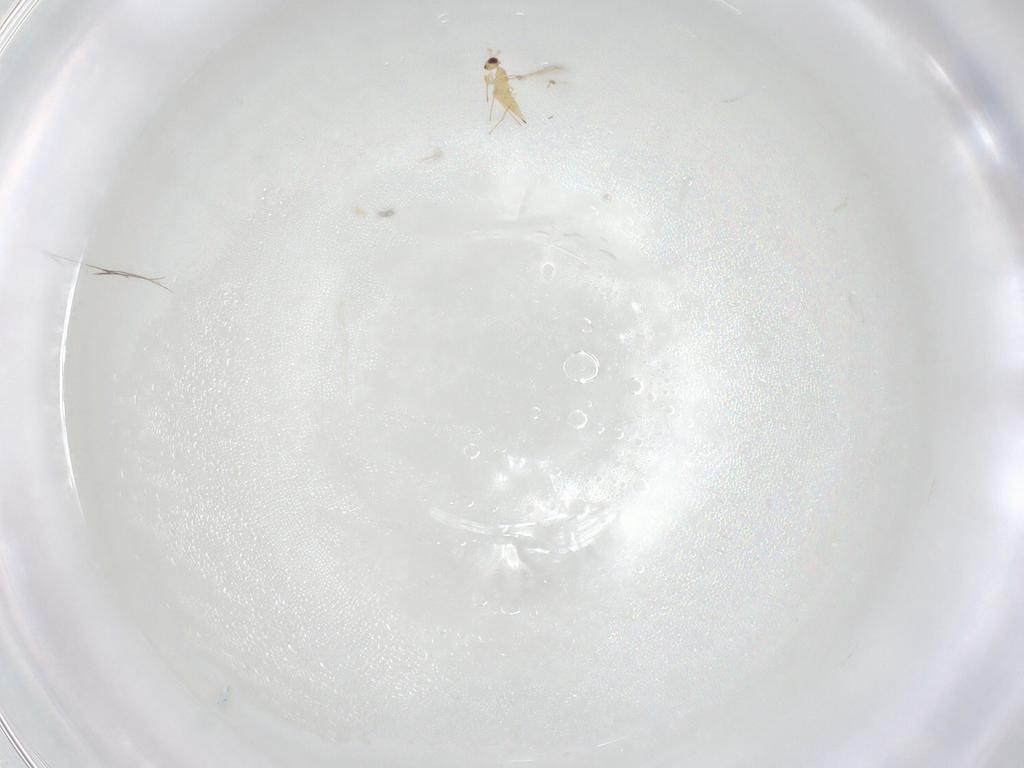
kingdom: Animalia
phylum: Arthropoda
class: Insecta
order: Hymenoptera
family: Mymaridae
